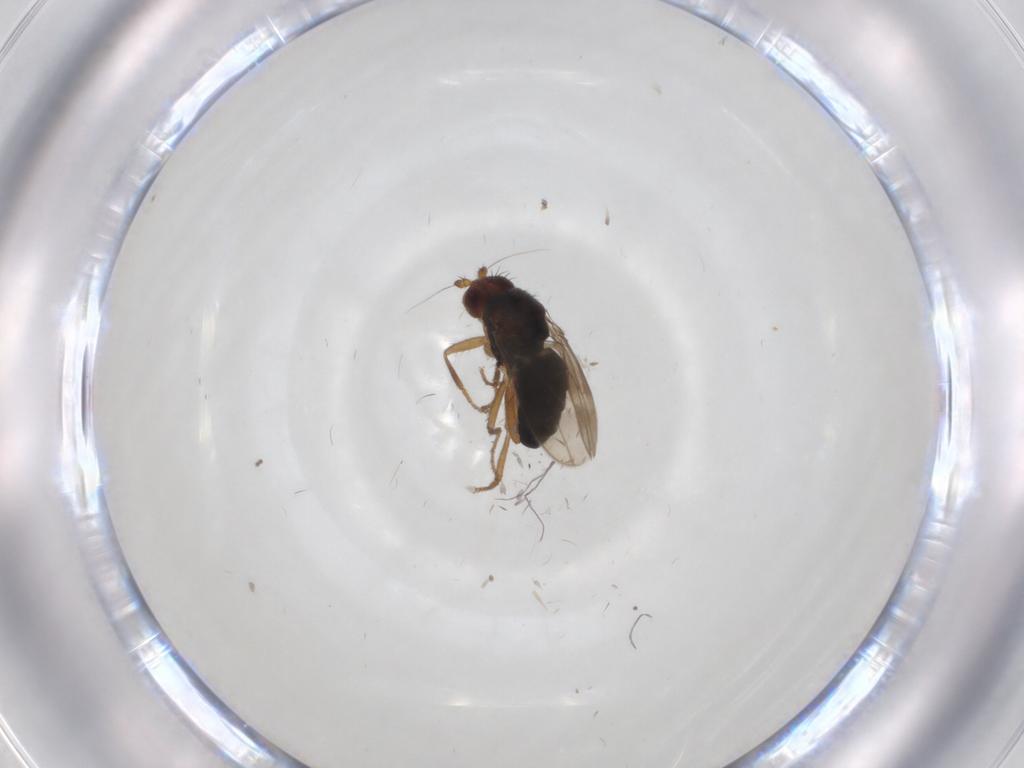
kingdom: Animalia
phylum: Arthropoda
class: Insecta
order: Diptera
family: Sphaeroceridae
